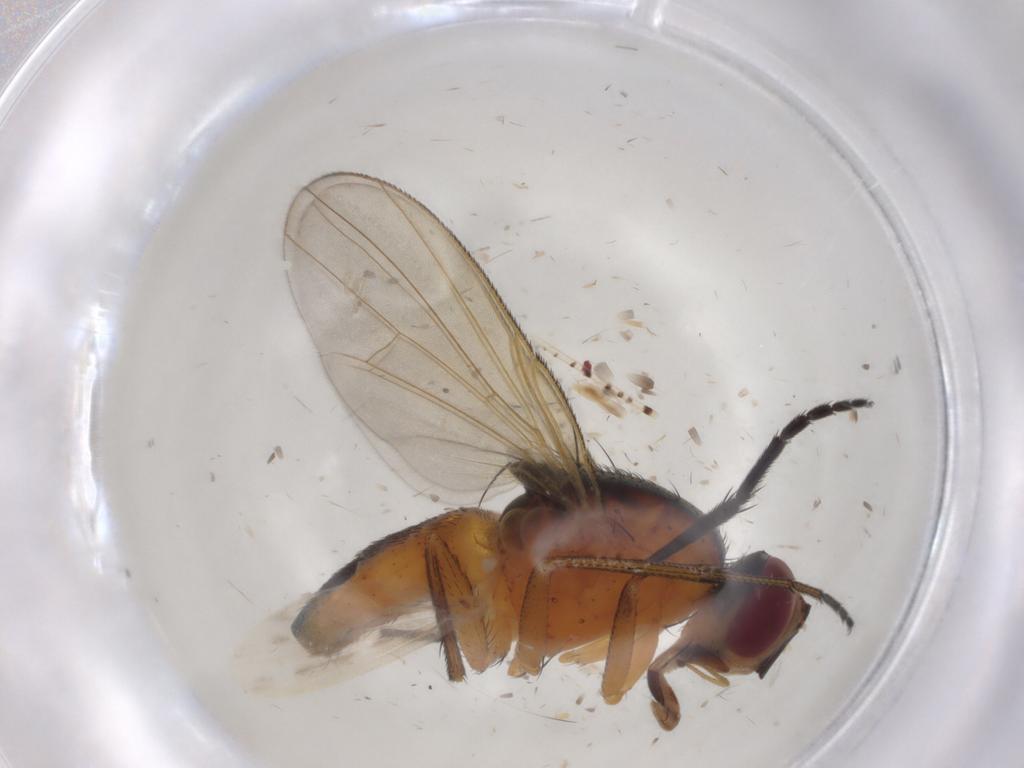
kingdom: Animalia
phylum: Arthropoda
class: Insecta
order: Diptera
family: Muscidae
